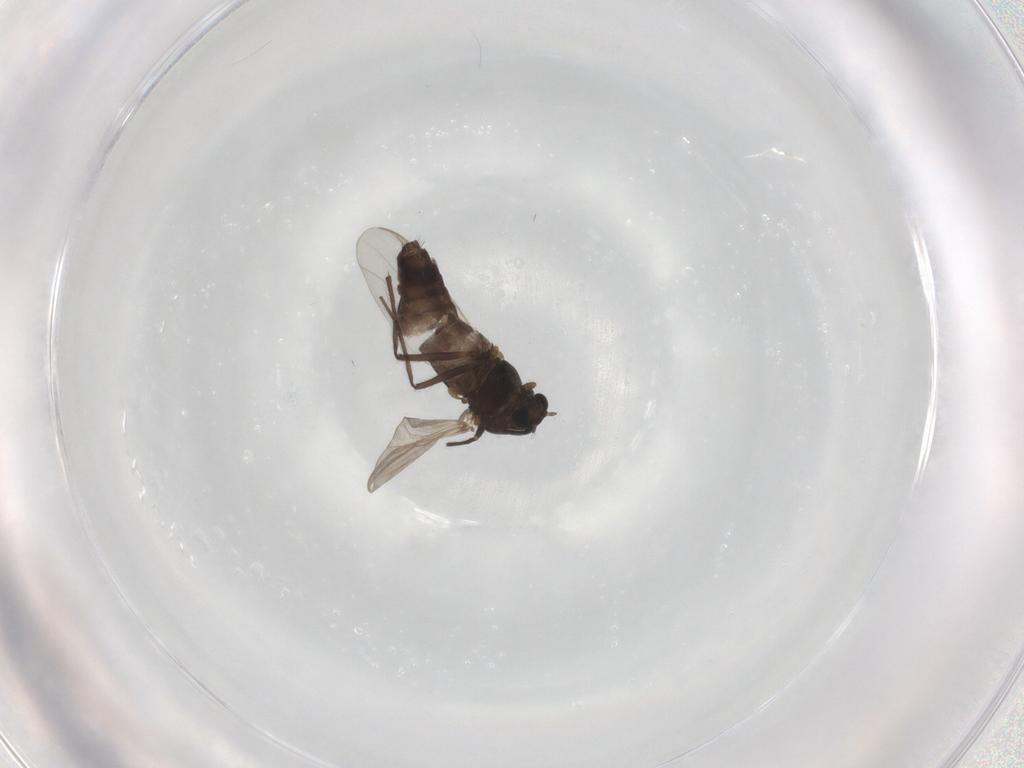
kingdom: Animalia
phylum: Arthropoda
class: Insecta
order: Diptera
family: Chironomidae
